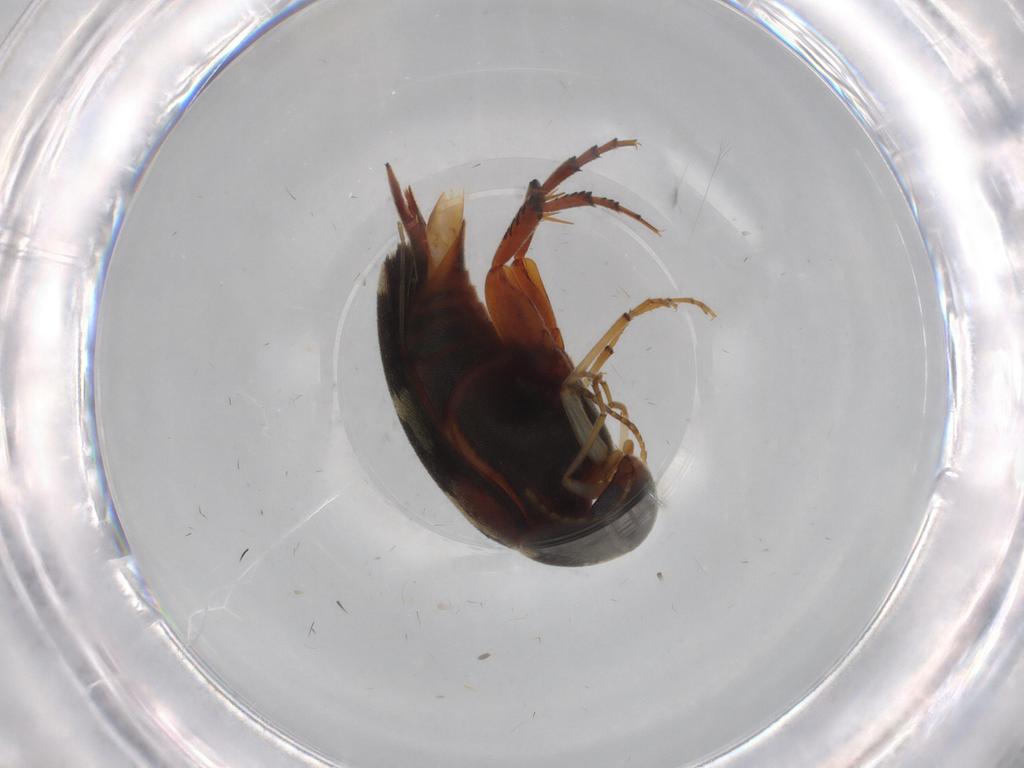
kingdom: Animalia
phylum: Arthropoda
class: Insecta
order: Coleoptera
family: Mordellidae
